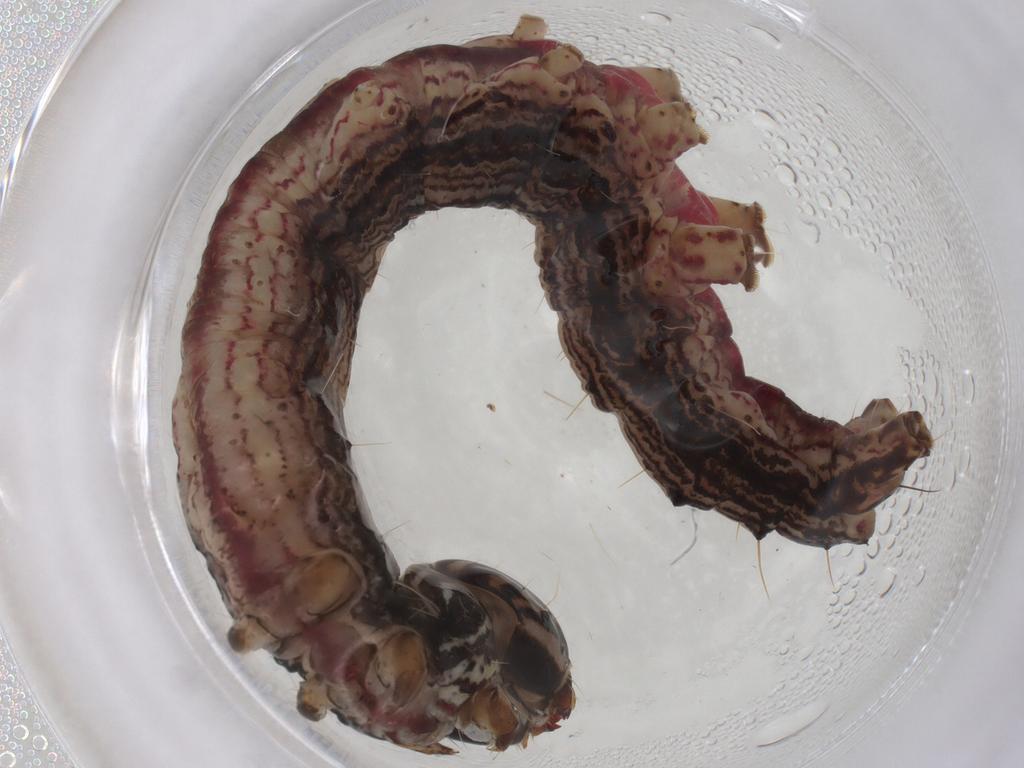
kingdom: Animalia
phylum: Arthropoda
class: Insecta
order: Lepidoptera
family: Erebidae
